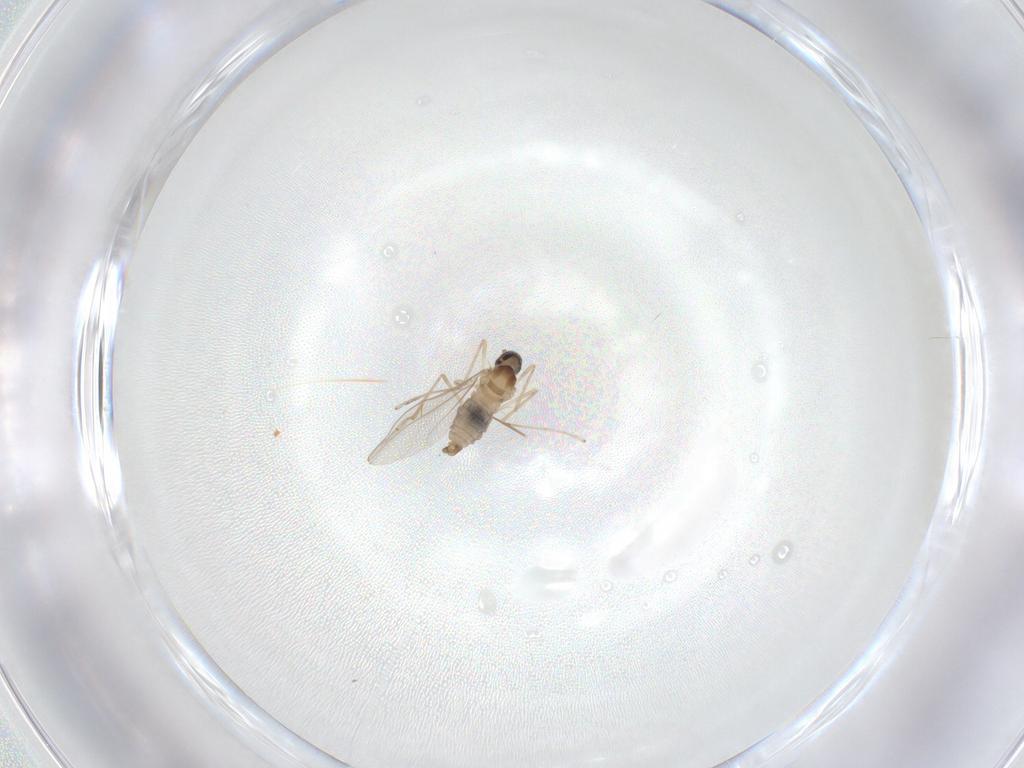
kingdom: Animalia
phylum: Arthropoda
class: Insecta
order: Diptera
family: Cecidomyiidae
